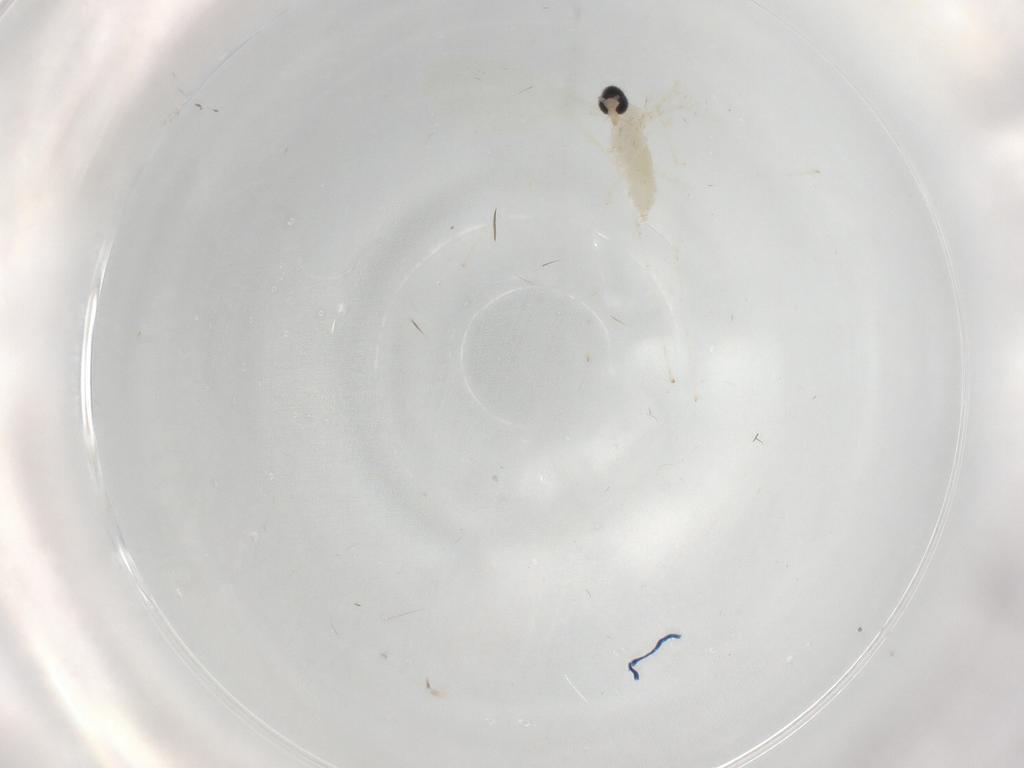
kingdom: Animalia
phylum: Arthropoda
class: Insecta
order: Diptera
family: Cecidomyiidae
